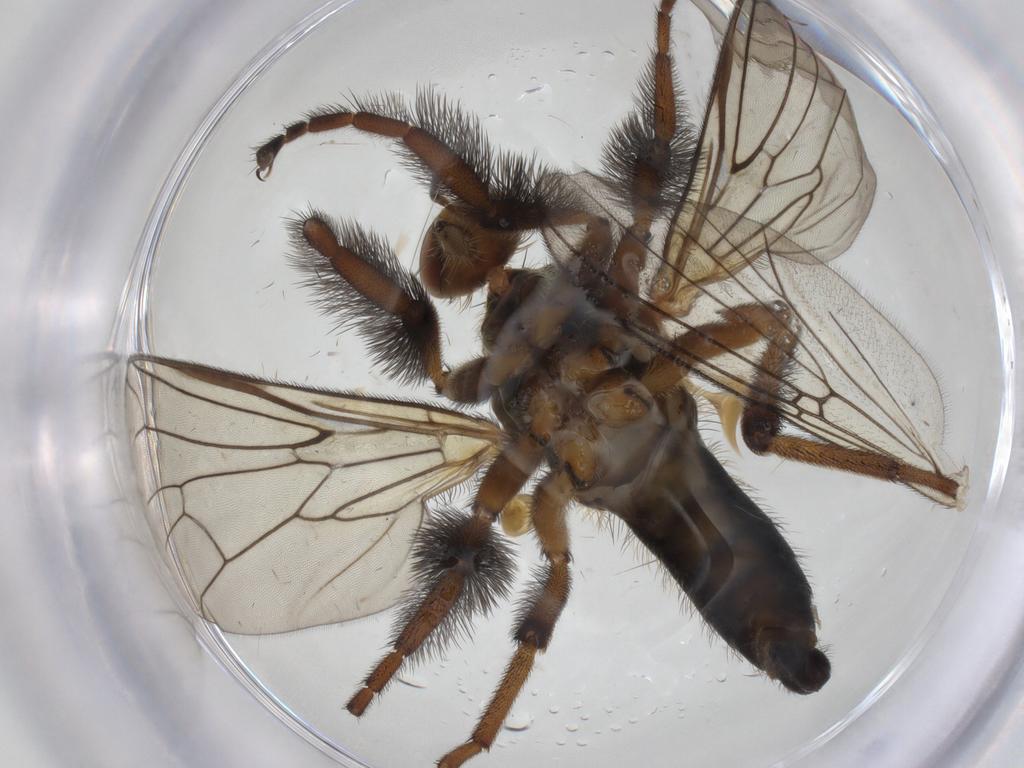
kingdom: Animalia
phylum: Arthropoda
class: Insecta
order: Diptera
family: Empididae
